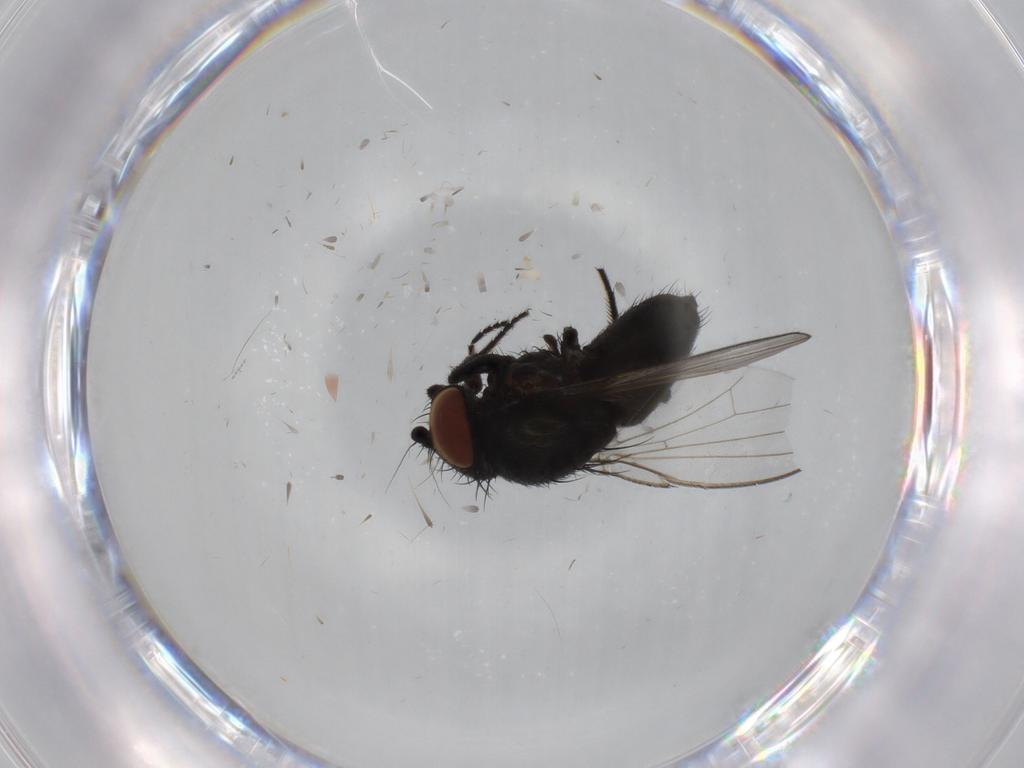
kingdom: Animalia
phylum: Arthropoda
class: Insecta
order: Diptera
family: Milichiidae
